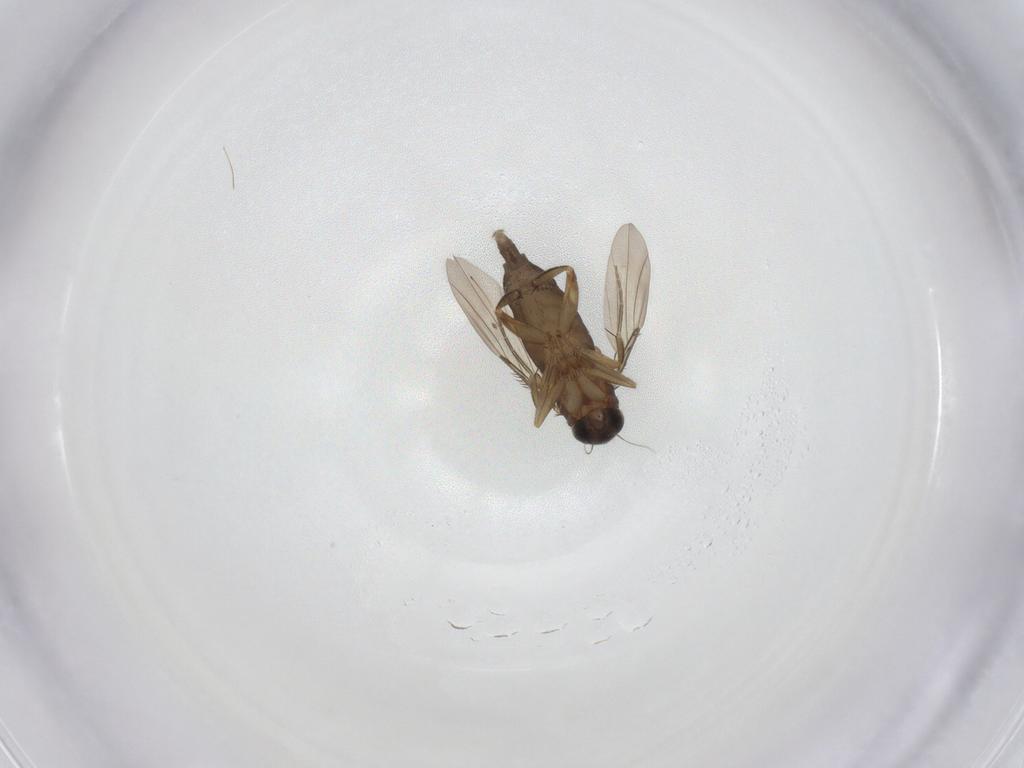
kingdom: Animalia
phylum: Arthropoda
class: Insecta
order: Diptera
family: Phoridae
